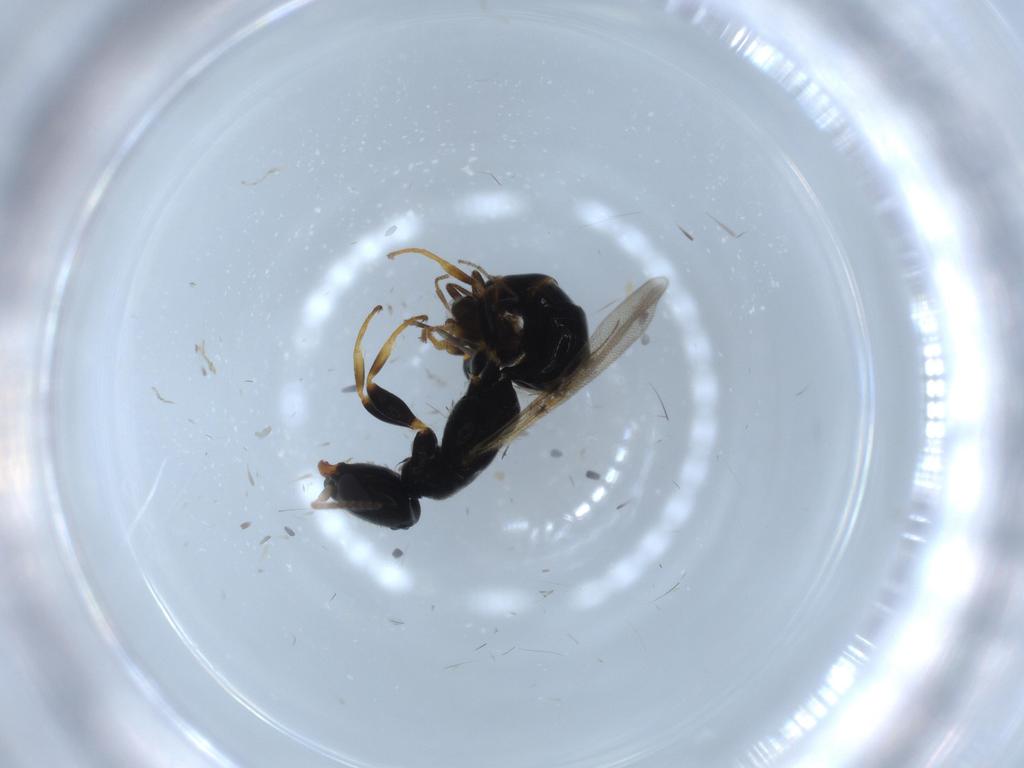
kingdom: Animalia
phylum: Arthropoda
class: Insecta
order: Hymenoptera
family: Bethylidae
